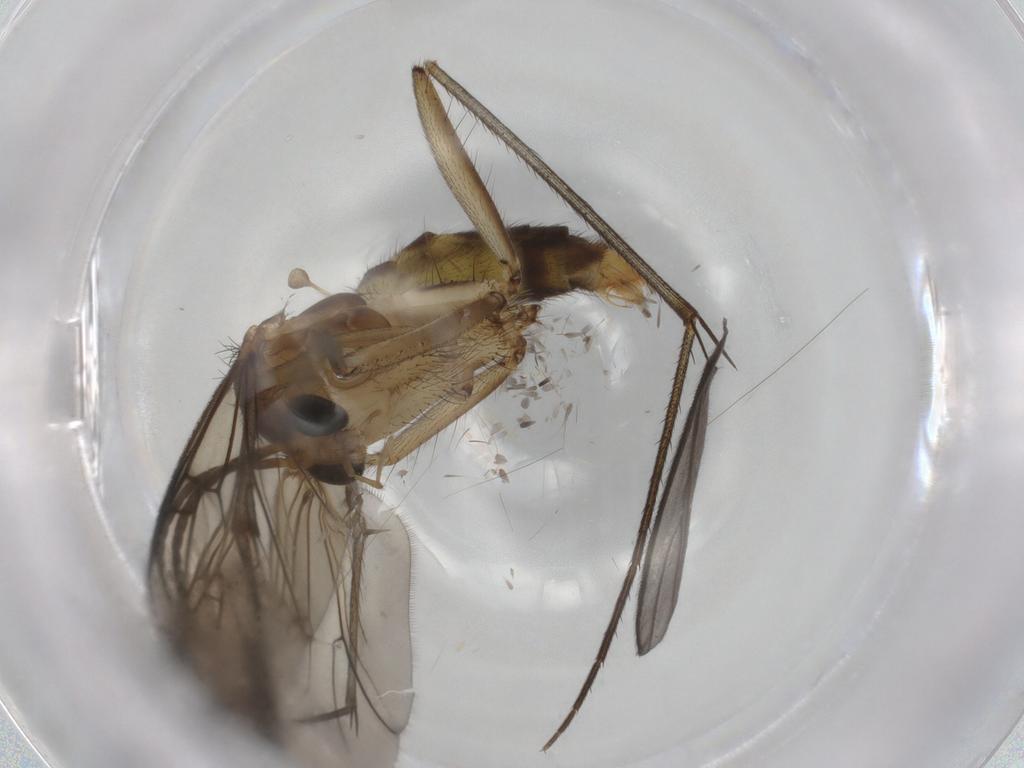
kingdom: Animalia
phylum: Arthropoda
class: Insecta
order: Diptera
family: Mycetophilidae
